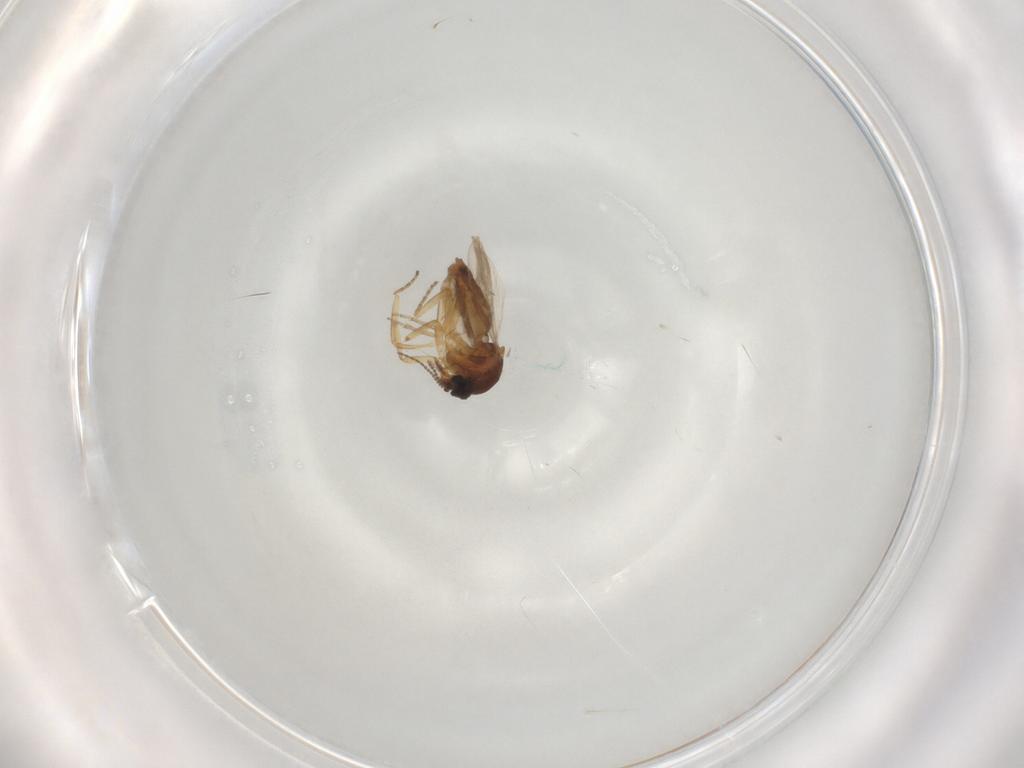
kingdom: Animalia
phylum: Arthropoda
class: Insecta
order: Diptera
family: Ceratopogonidae
